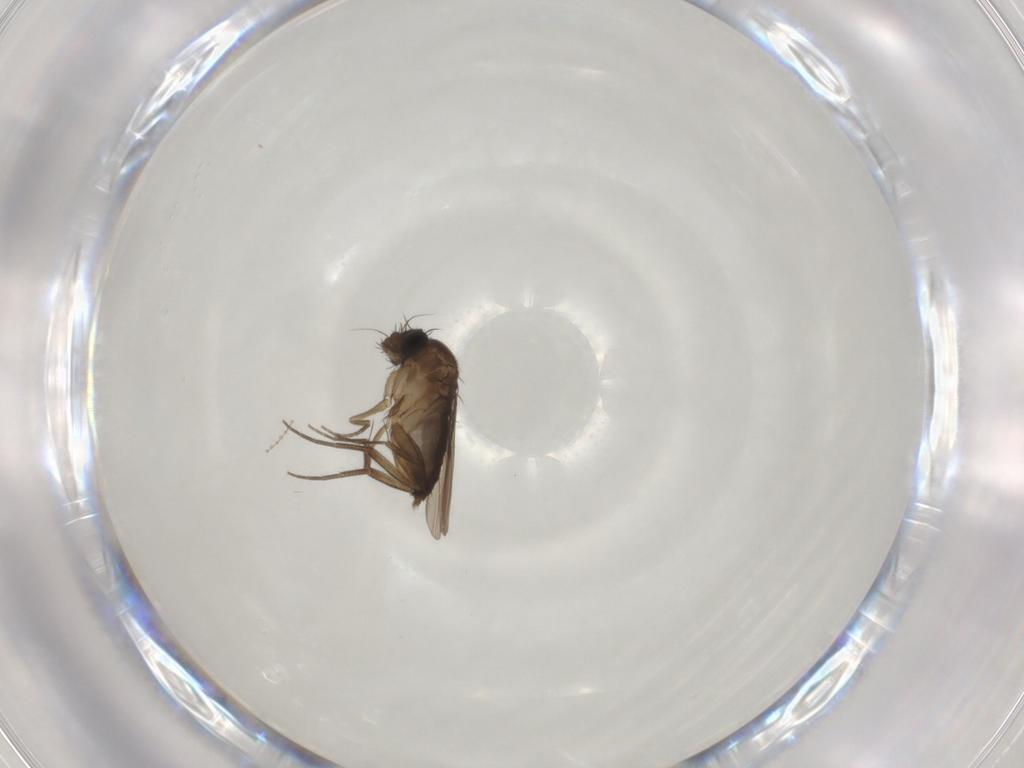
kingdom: Animalia
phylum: Arthropoda
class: Insecta
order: Diptera
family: Phoridae
